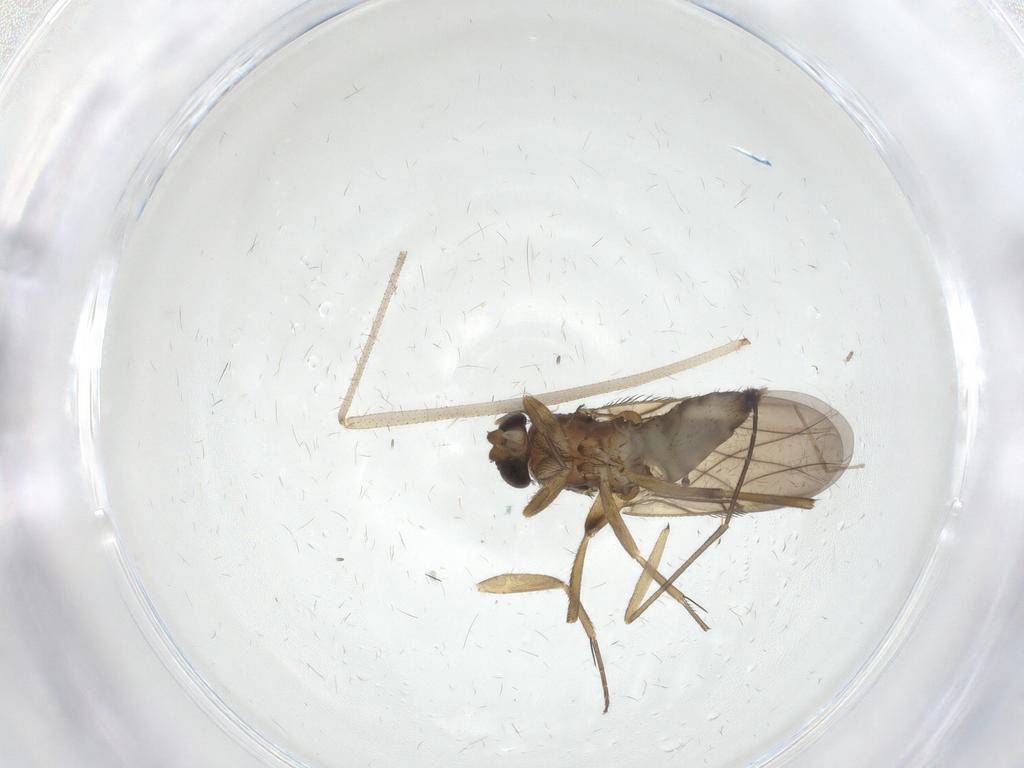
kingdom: Animalia
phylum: Arthropoda
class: Insecta
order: Diptera
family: Phoridae
